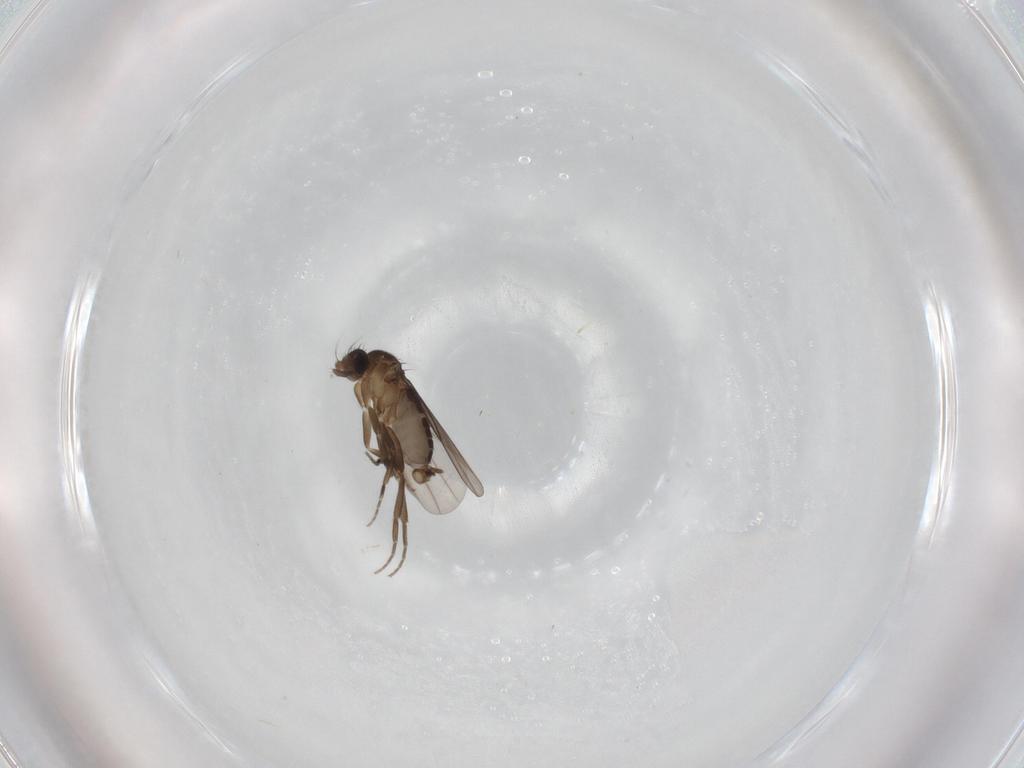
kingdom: Animalia
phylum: Arthropoda
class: Insecta
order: Diptera
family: Phoridae
